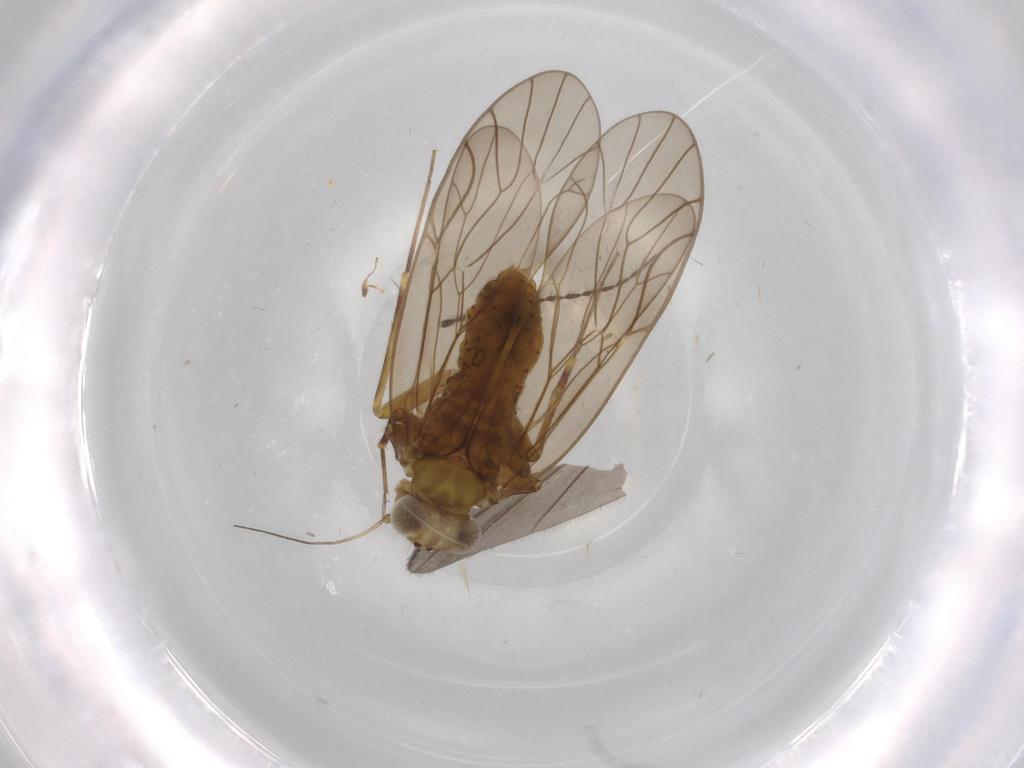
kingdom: Animalia
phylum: Arthropoda
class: Insecta
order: Psocodea
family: Philotarsidae
